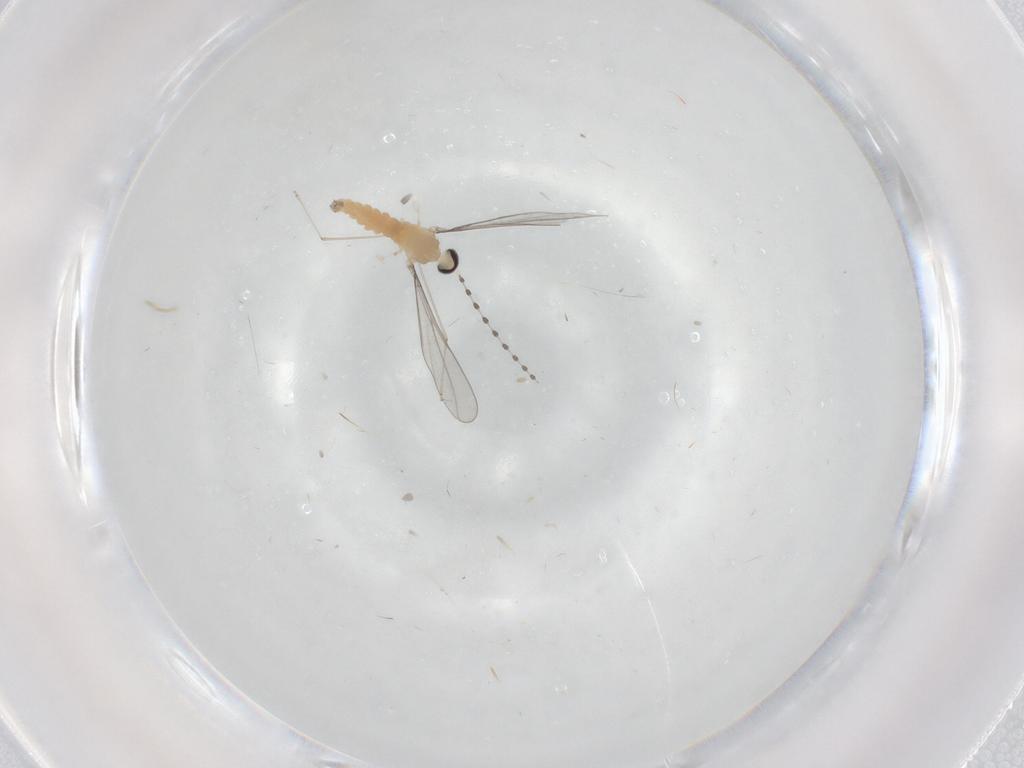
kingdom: Animalia
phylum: Arthropoda
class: Insecta
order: Diptera
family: Cecidomyiidae
